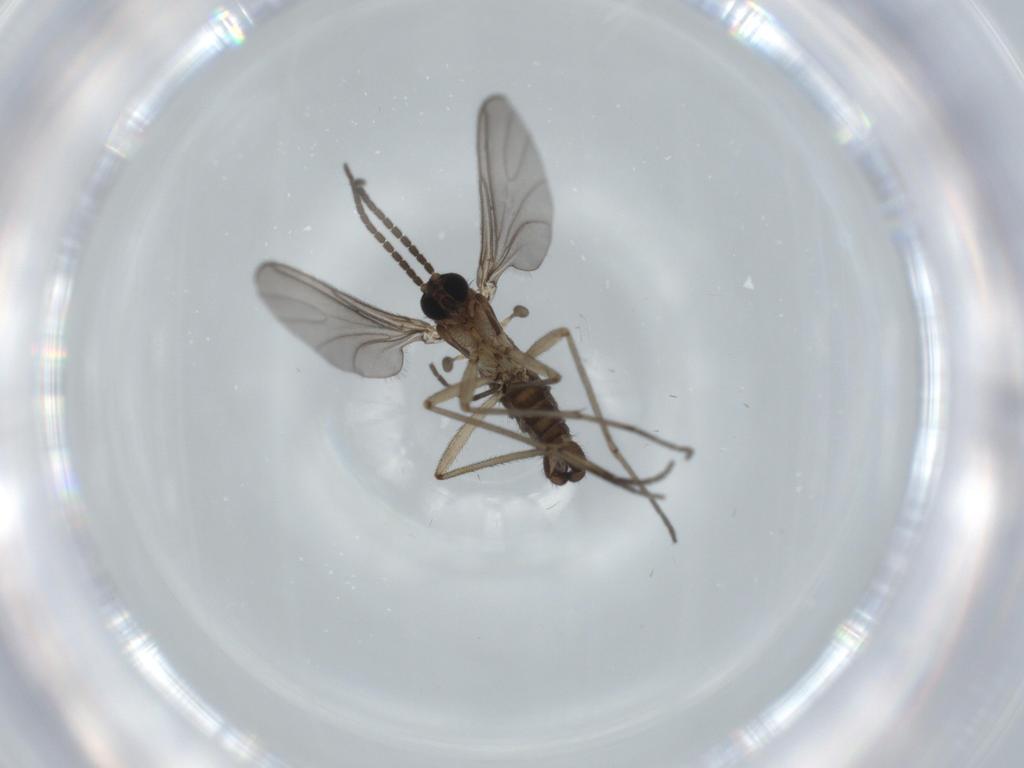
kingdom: Animalia
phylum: Arthropoda
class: Insecta
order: Diptera
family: Sciaridae
